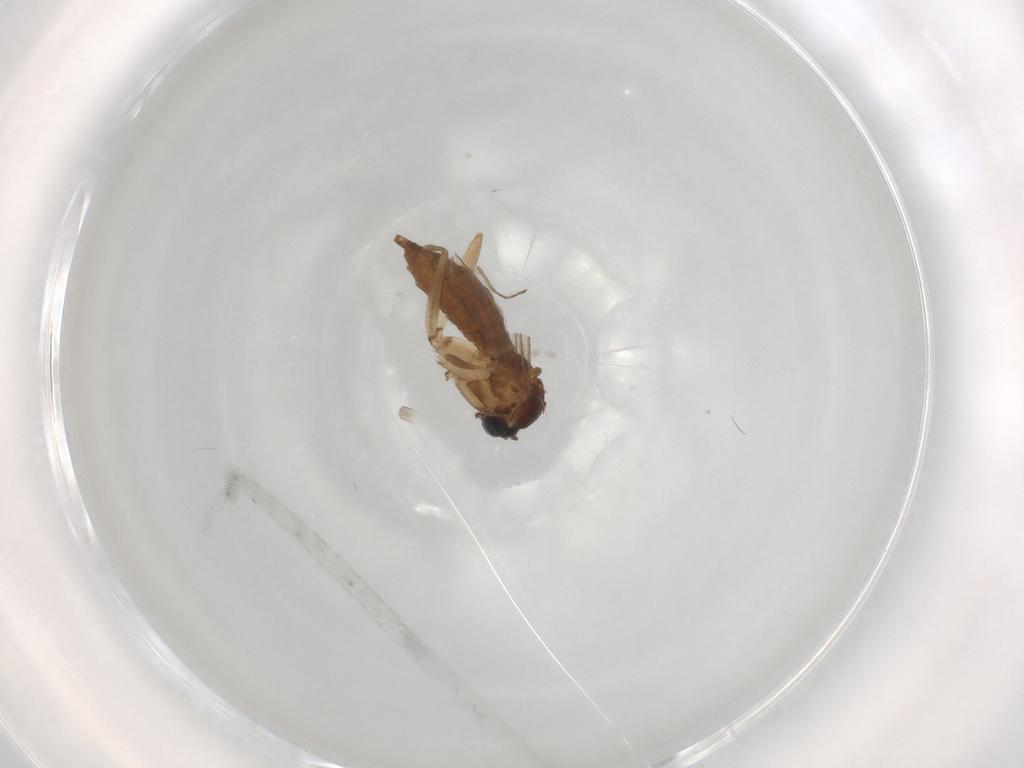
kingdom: Animalia
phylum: Arthropoda
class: Insecta
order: Diptera
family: Sciaridae
